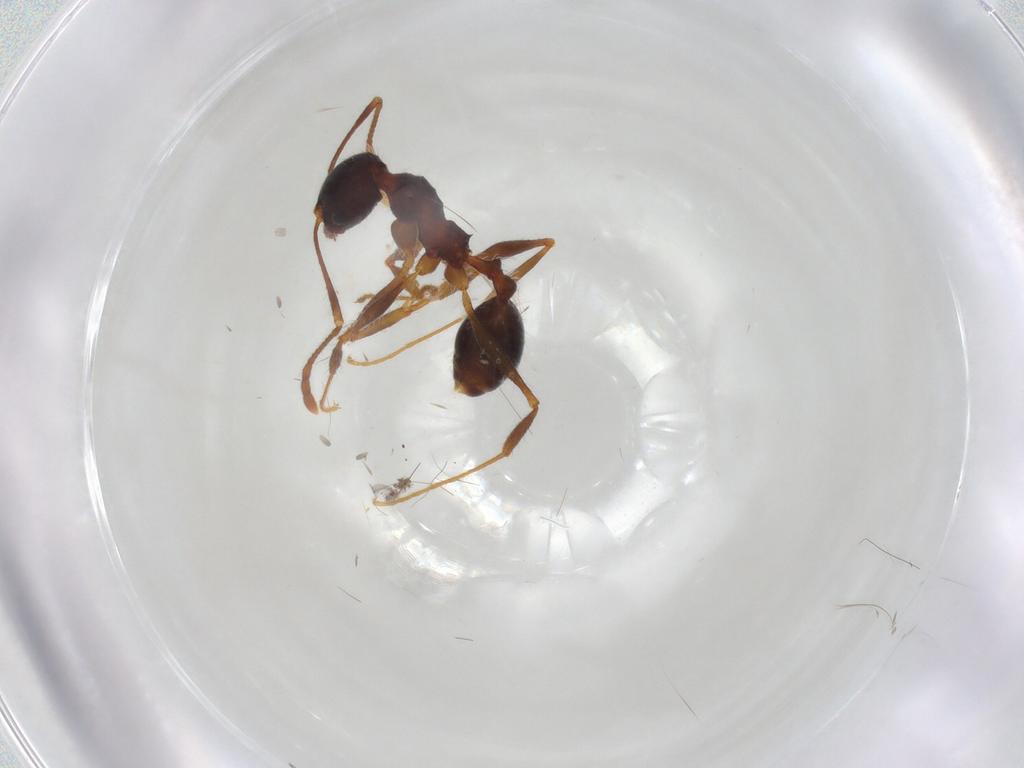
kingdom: Animalia
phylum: Arthropoda
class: Insecta
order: Hymenoptera
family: Formicidae
